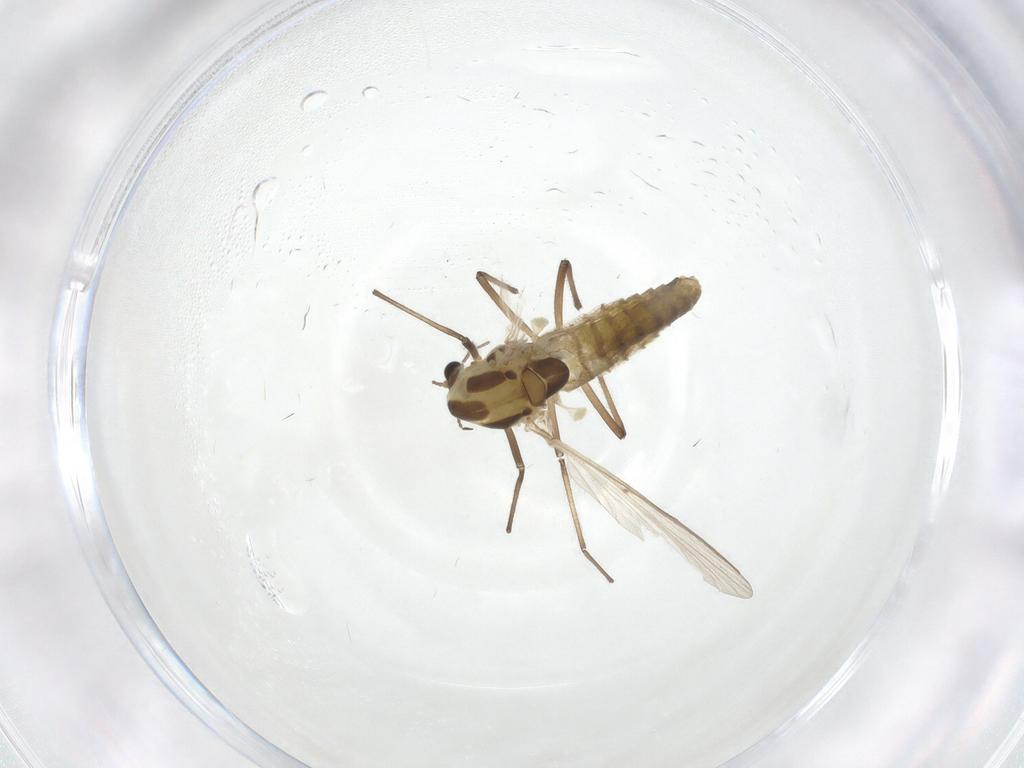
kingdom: Animalia
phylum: Arthropoda
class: Insecta
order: Diptera
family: Chironomidae
